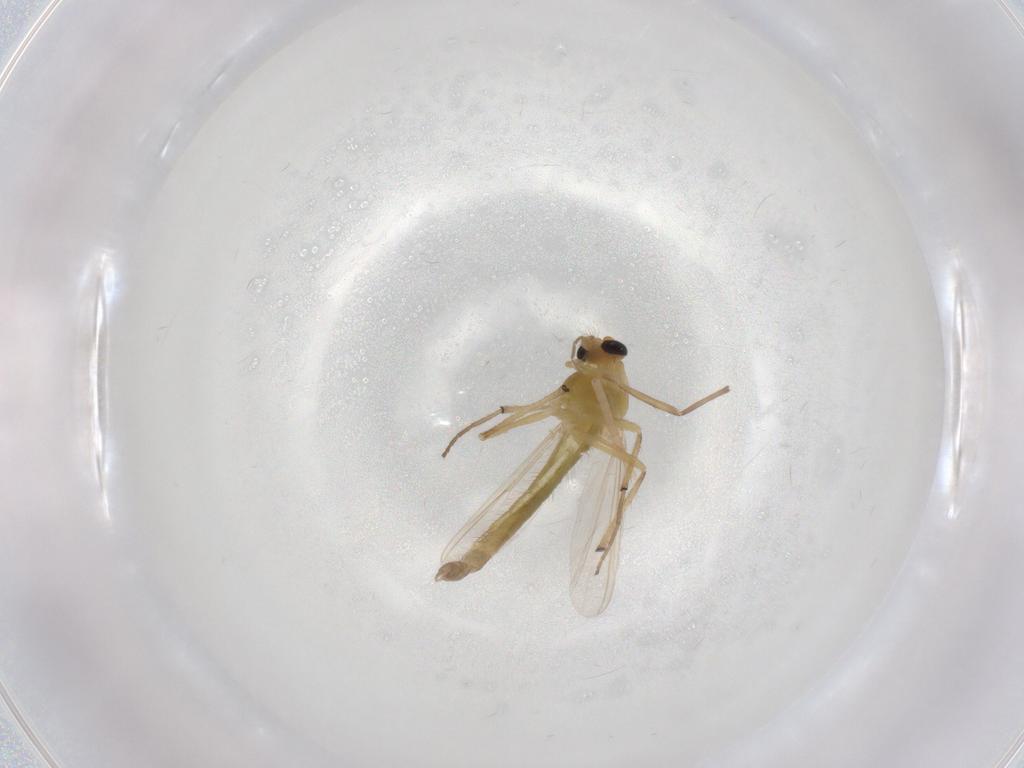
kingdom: Animalia
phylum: Arthropoda
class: Insecta
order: Diptera
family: Chironomidae
